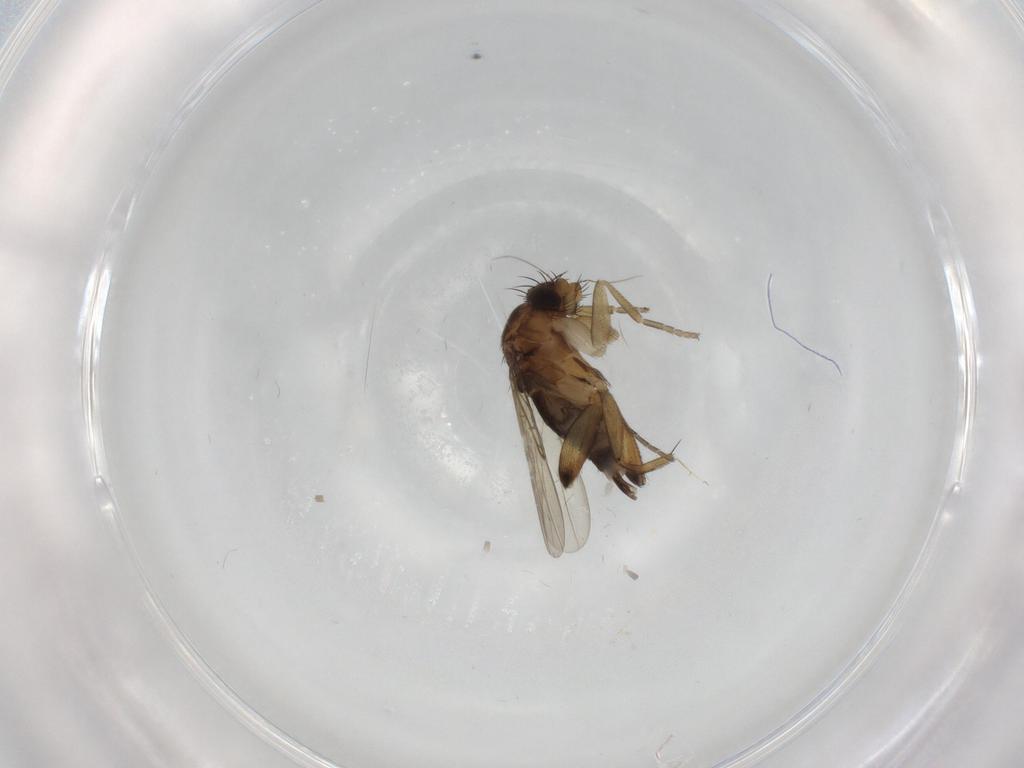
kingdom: Animalia
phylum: Arthropoda
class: Insecta
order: Diptera
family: Phoridae
